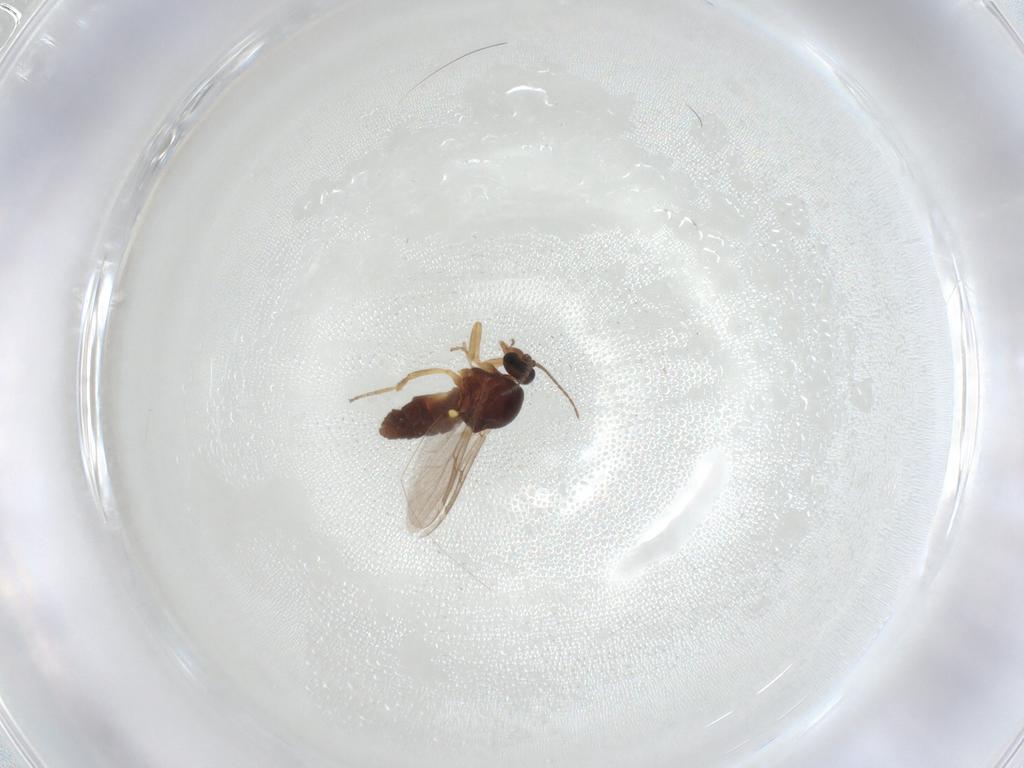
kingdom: Animalia
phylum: Arthropoda
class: Insecta
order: Diptera
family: Ceratopogonidae
